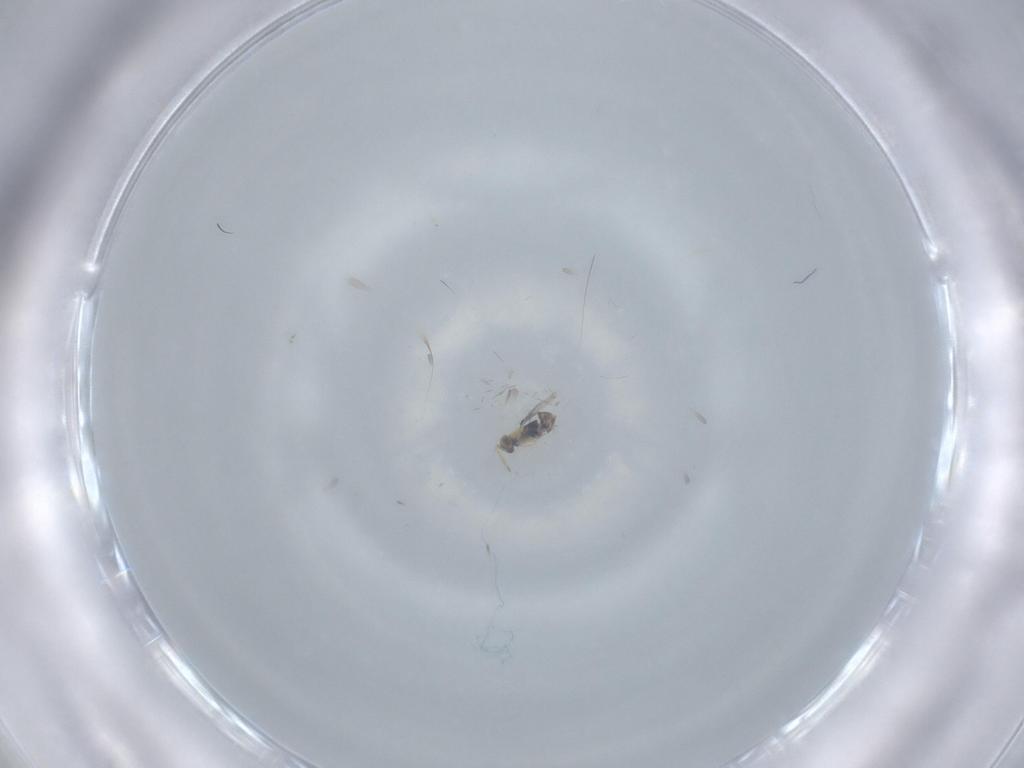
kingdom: Animalia
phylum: Arthropoda
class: Insecta
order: Hymenoptera
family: Aphelinidae
